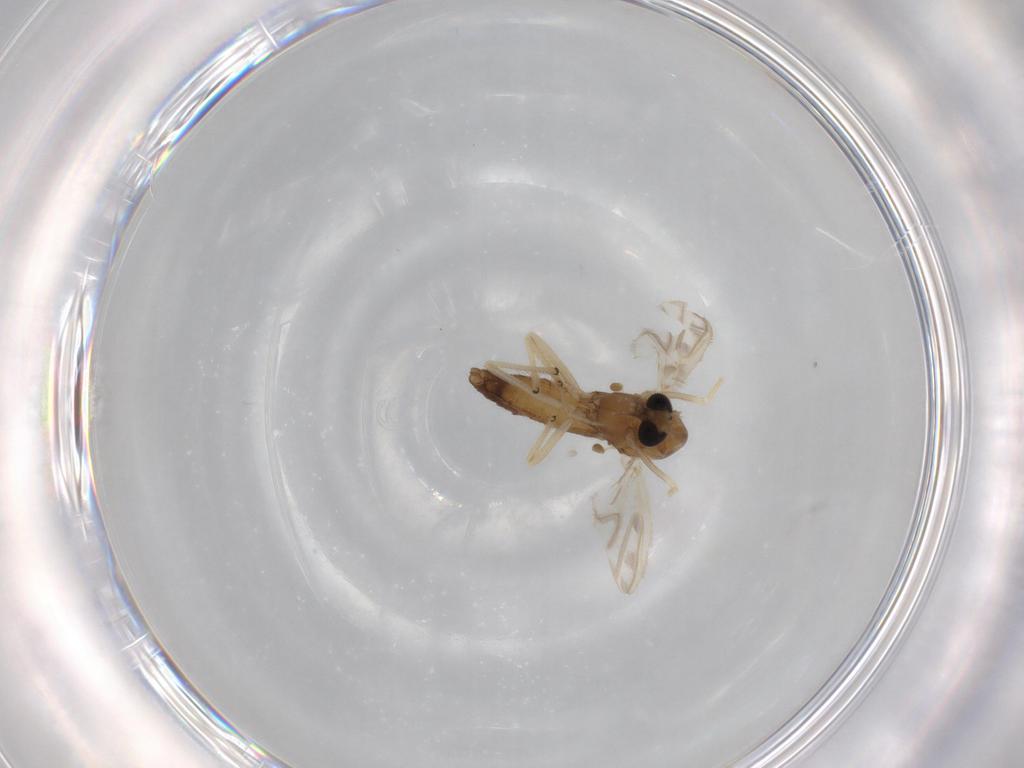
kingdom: Animalia
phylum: Arthropoda
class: Insecta
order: Diptera
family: Chironomidae
